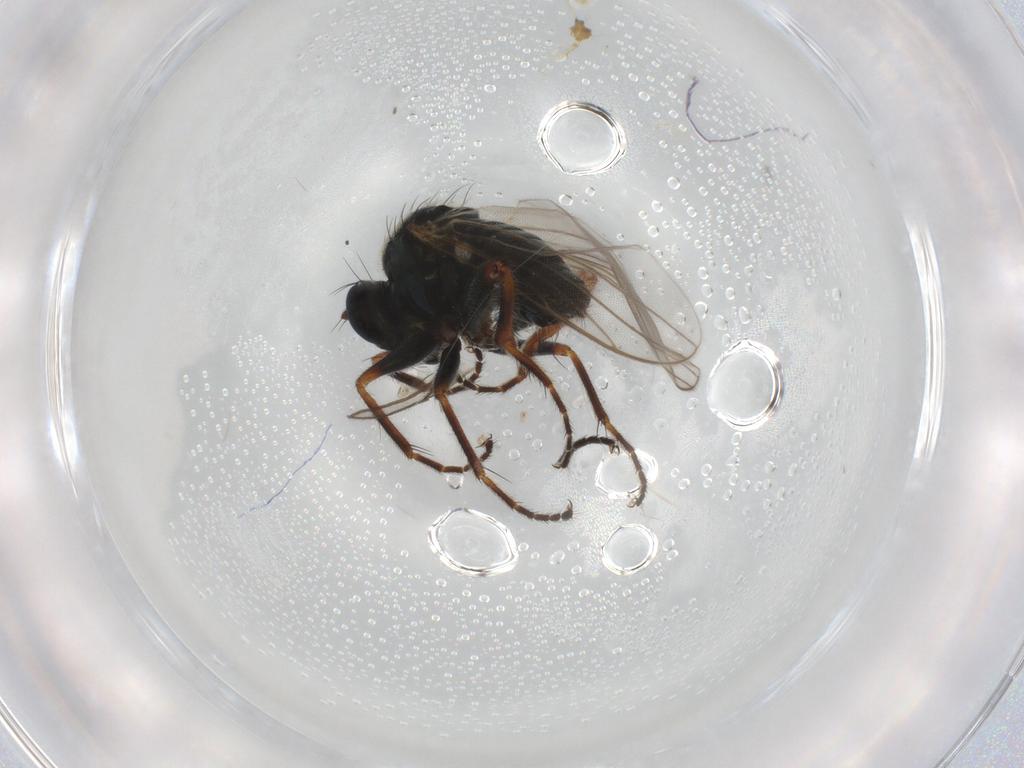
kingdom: Animalia
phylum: Arthropoda
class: Insecta
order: Diptera
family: Hybotidae
